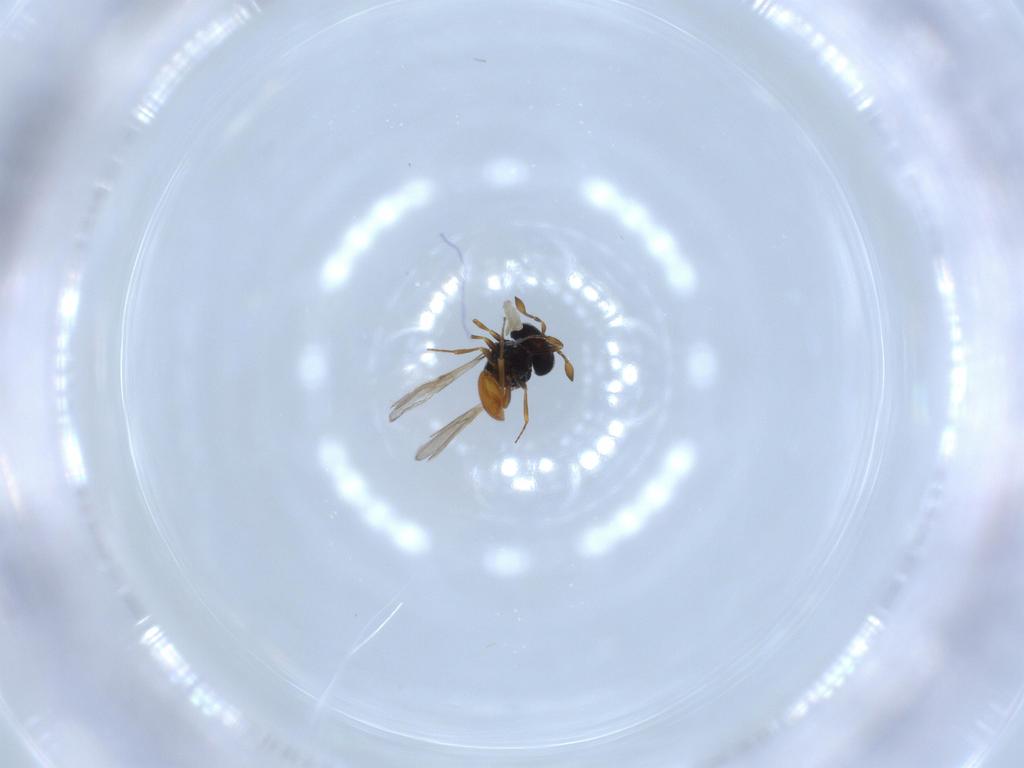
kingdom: Animalia
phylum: Arthropoda
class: Insecta
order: Hymenoptera
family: Scelionidae
